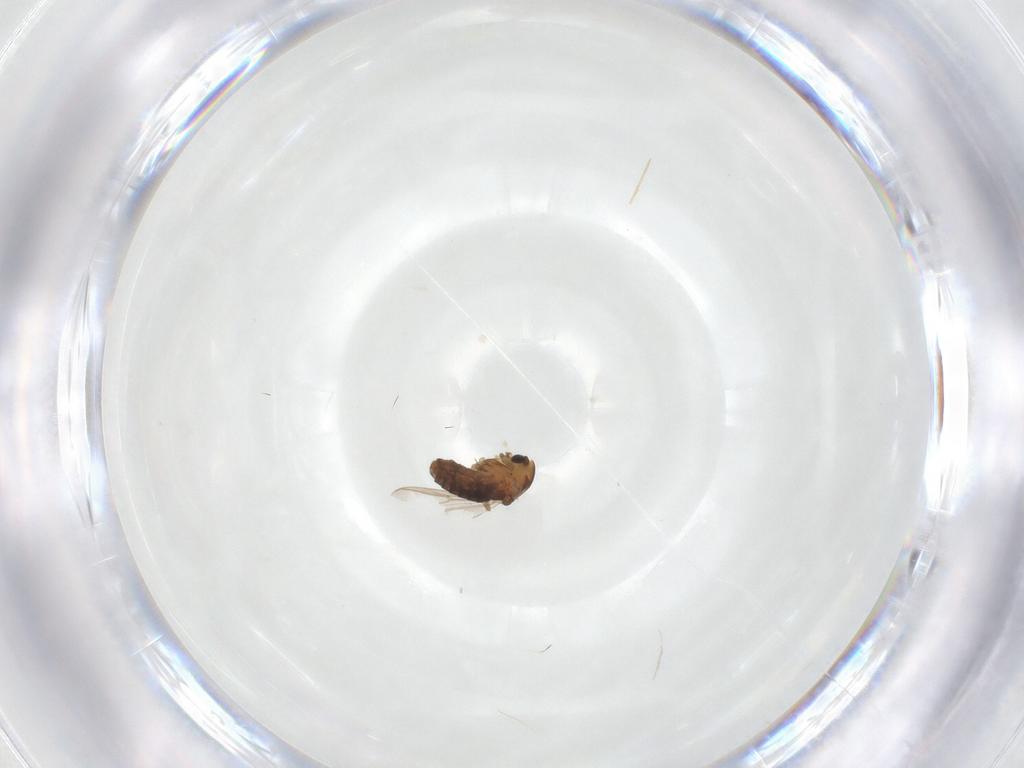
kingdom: Animalia
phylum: Arthropoda
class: Insecta
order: Diptera
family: Chironomidae
